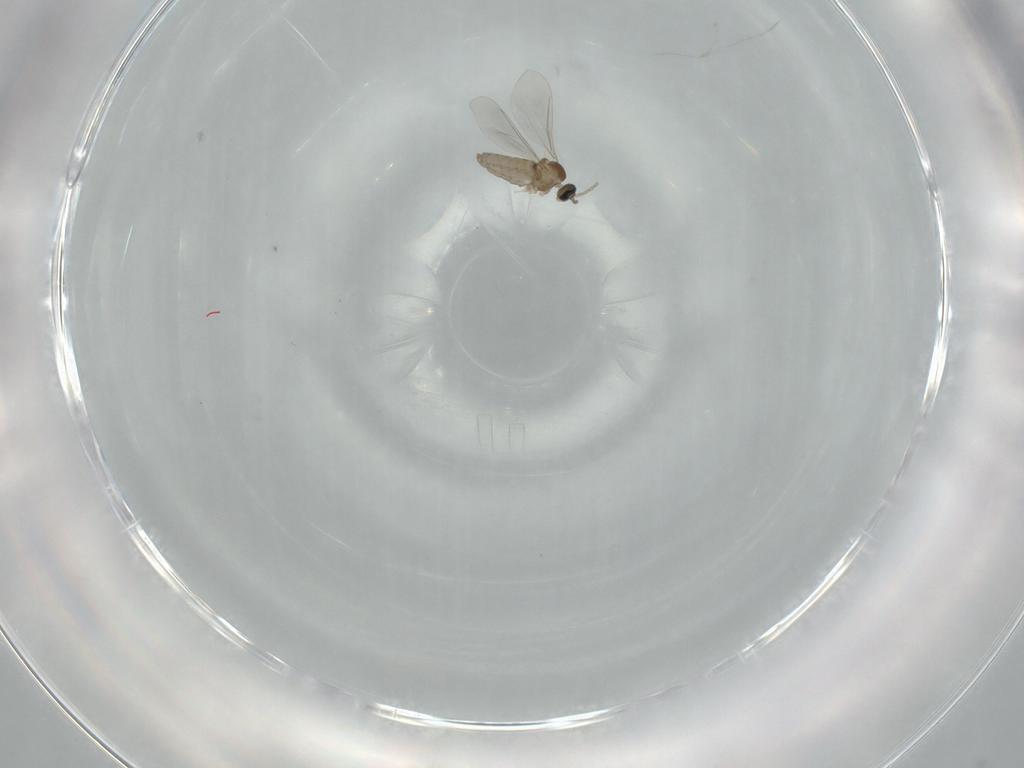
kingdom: Animalia
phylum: Arthropoda
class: Insecta
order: Diptera
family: Cecidomyiidae
